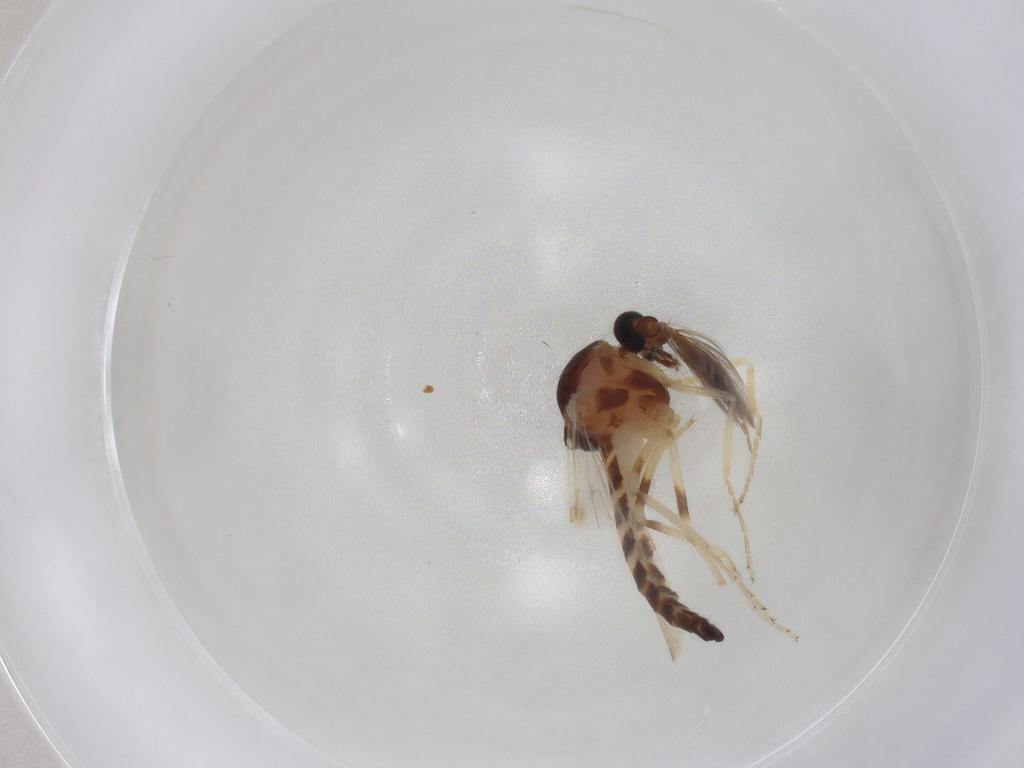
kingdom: Animalia
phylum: Arthropoda
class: Insecta
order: Diptera
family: Ceratopogonidae
